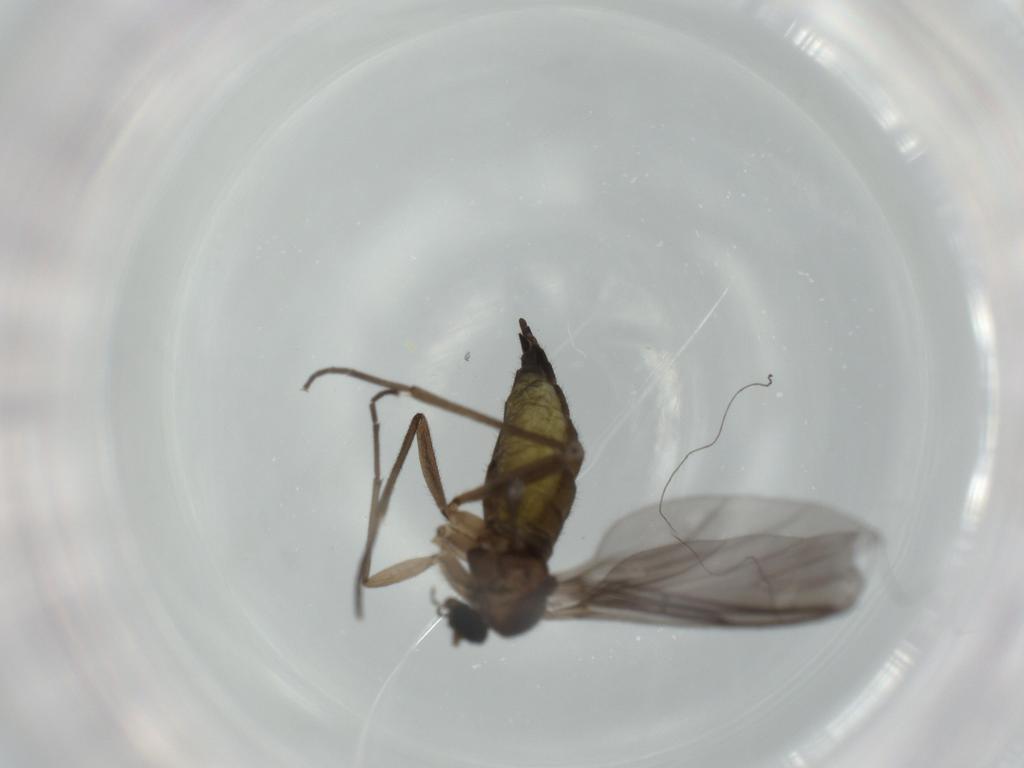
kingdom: Animalia
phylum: Arthropoda
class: Insecta
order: Diptera
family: Sciaridae
